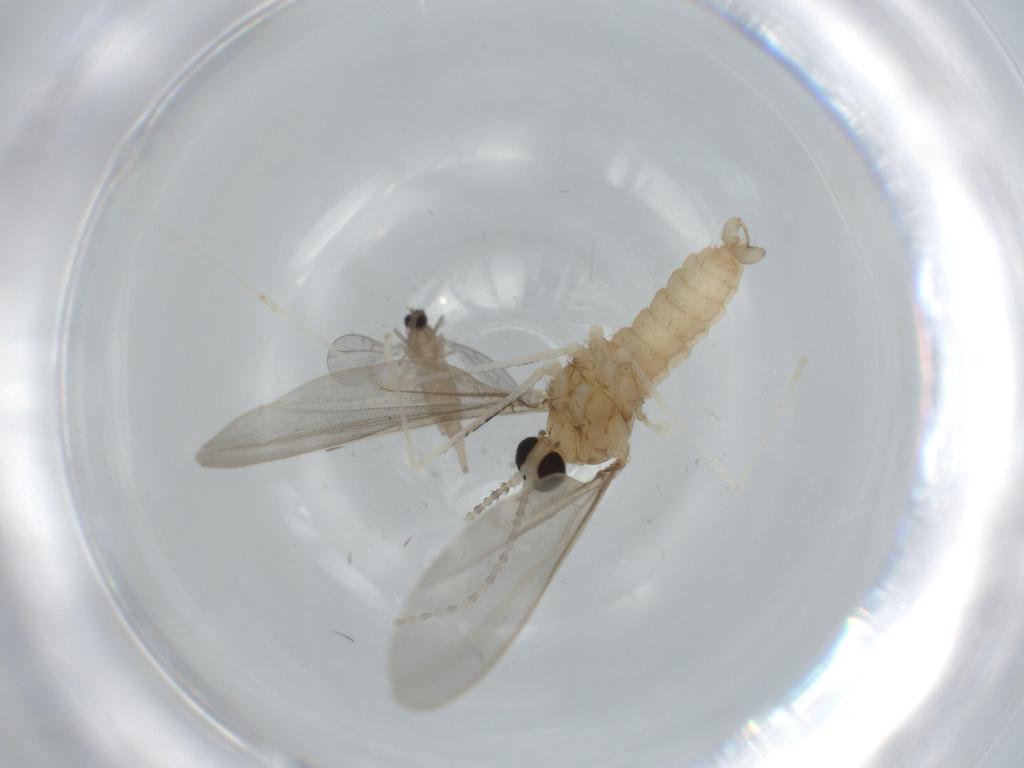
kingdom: Animalia
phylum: Arthropoda
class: Insecta
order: Diptera
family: Cecidomyiidae
